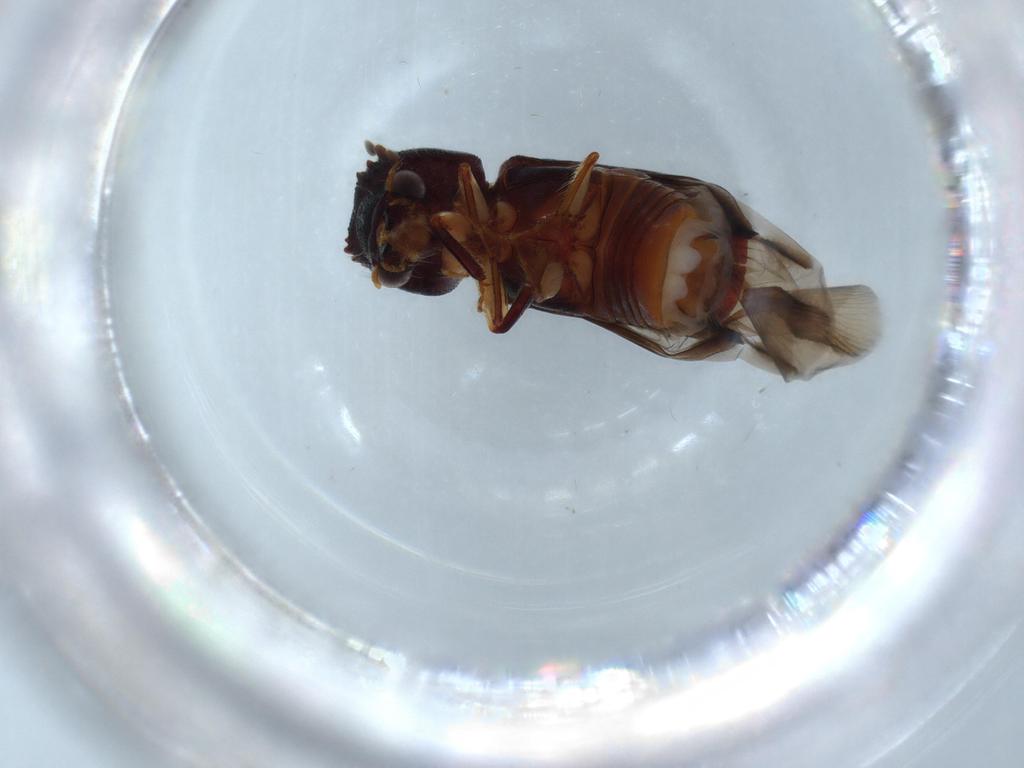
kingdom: Animalia
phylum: Arthropoda
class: Insecta
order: Coleoptera
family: Bostrichidae
